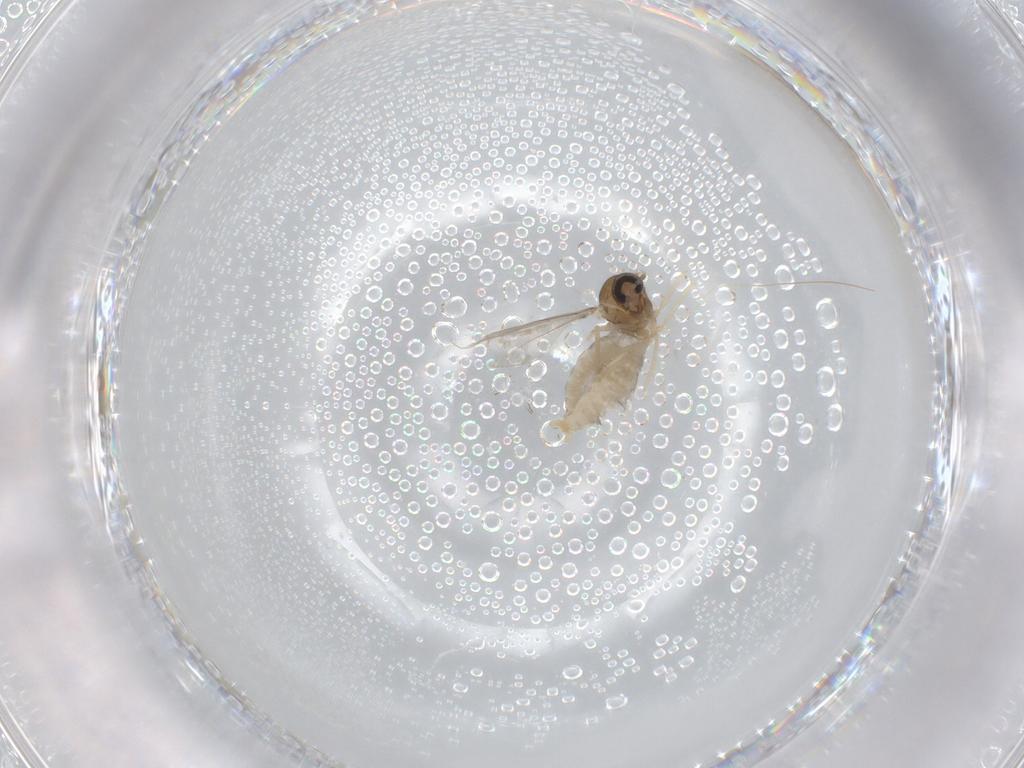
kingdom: Animalia
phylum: Arthropoda
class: Insecta
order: Diptera
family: Cecidomyiidae
